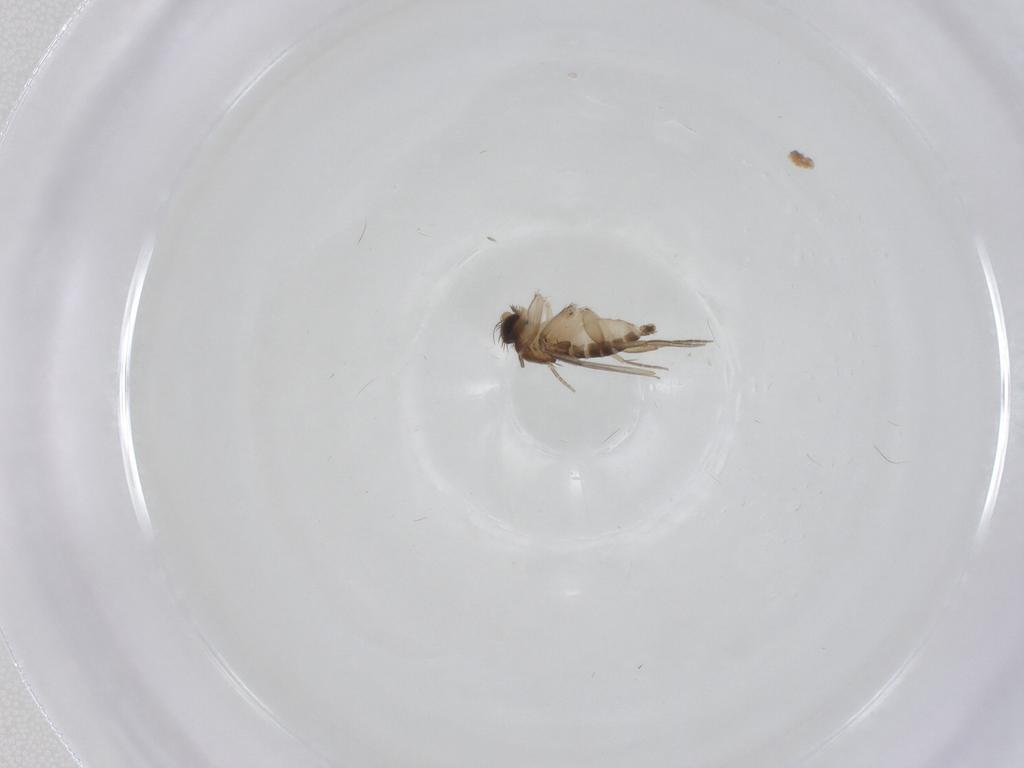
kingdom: Animalia
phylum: Arthropoda
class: Insecta
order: Diptera
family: Phoridae
